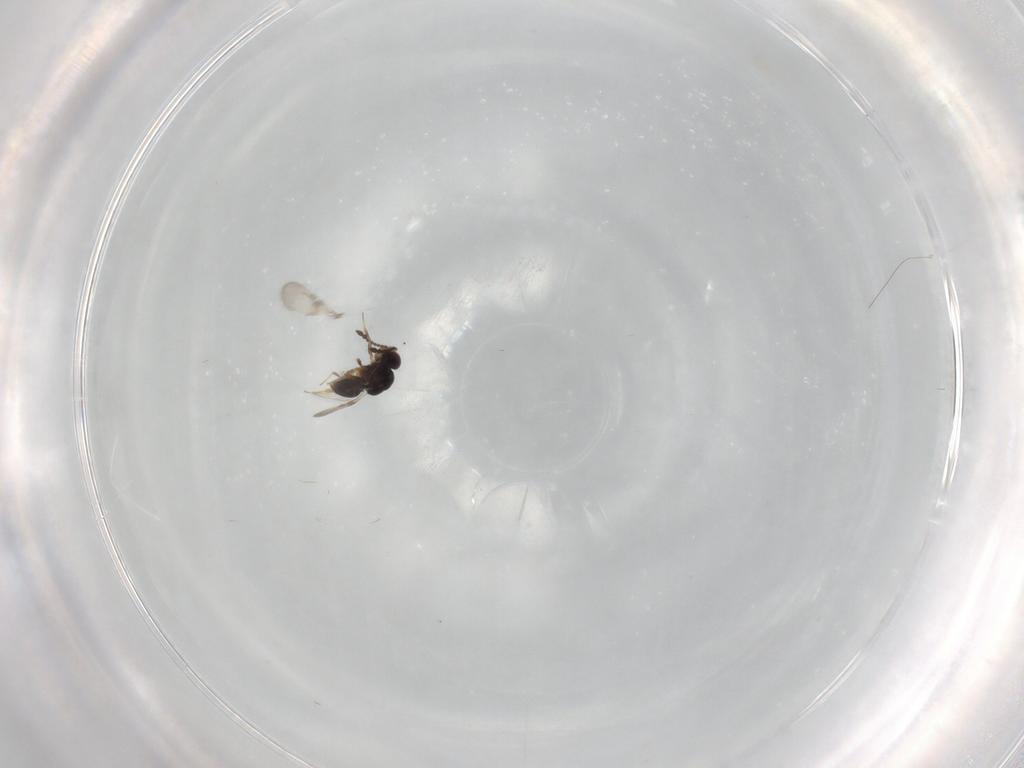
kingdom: Animalia
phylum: Arthropoda
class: Insecta
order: Hymenoptera
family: Ceraphronidae
